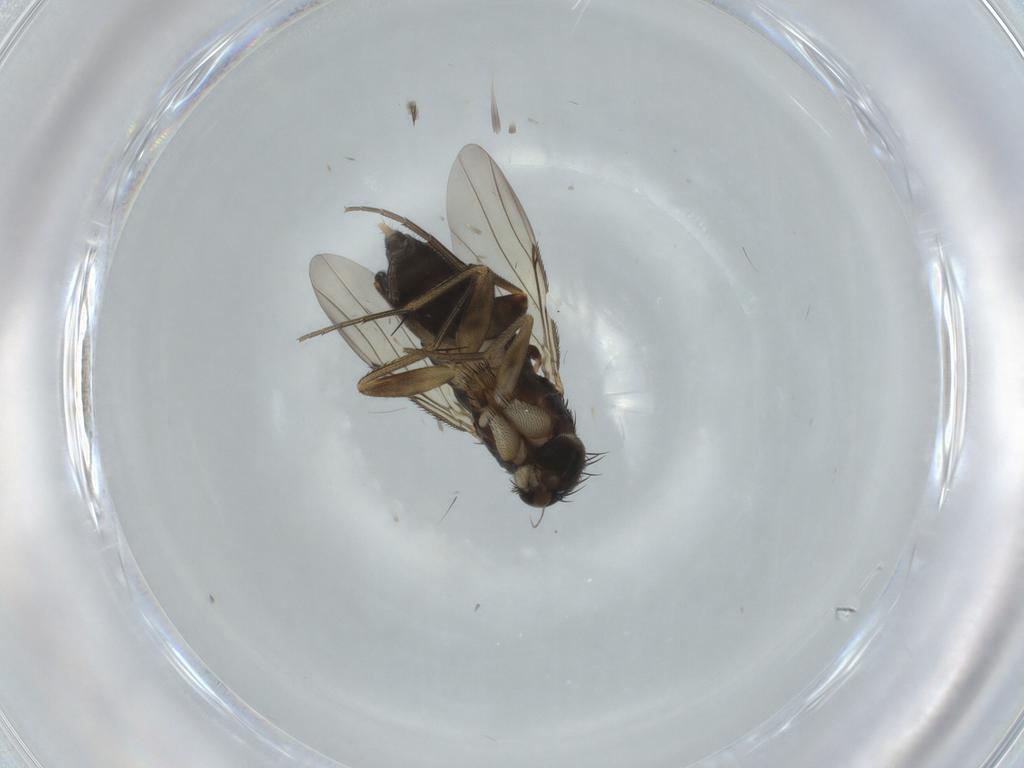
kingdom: Animalia
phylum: Arthropoda
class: Insecta
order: Diptera
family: Phoridae
